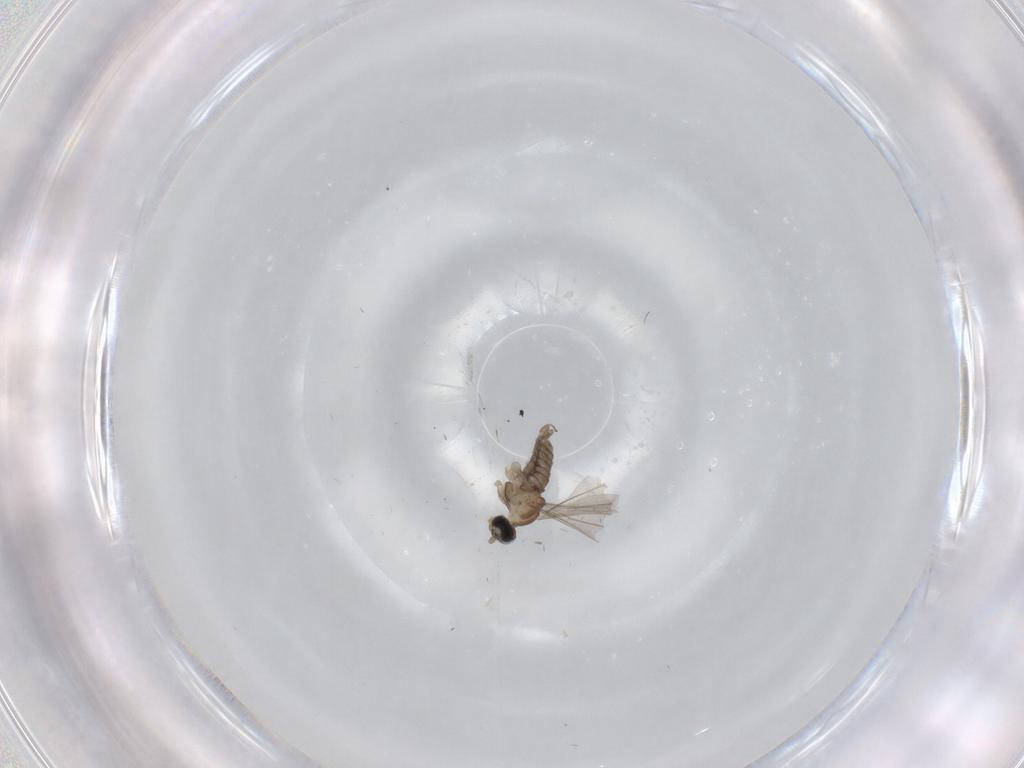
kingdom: Animalia
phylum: Arthropoda
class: Insecta
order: Diptera
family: Cecidomyiidae
